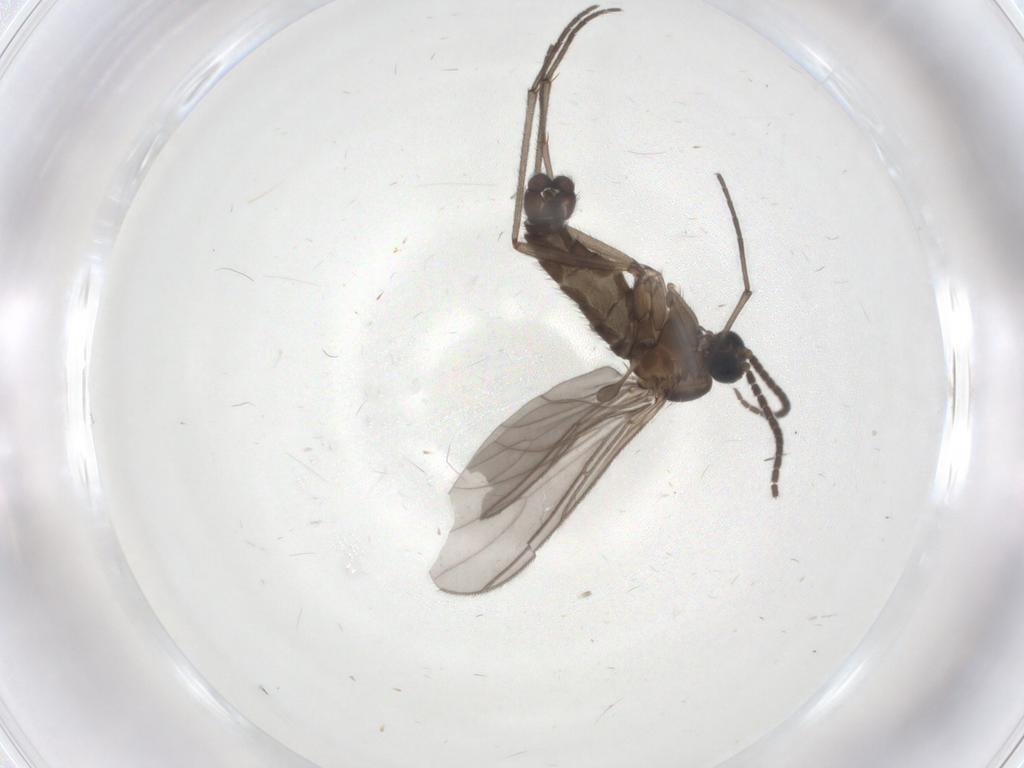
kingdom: Animalia
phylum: Arthropoda
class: Insecta
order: Diptera
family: Sciaridae
